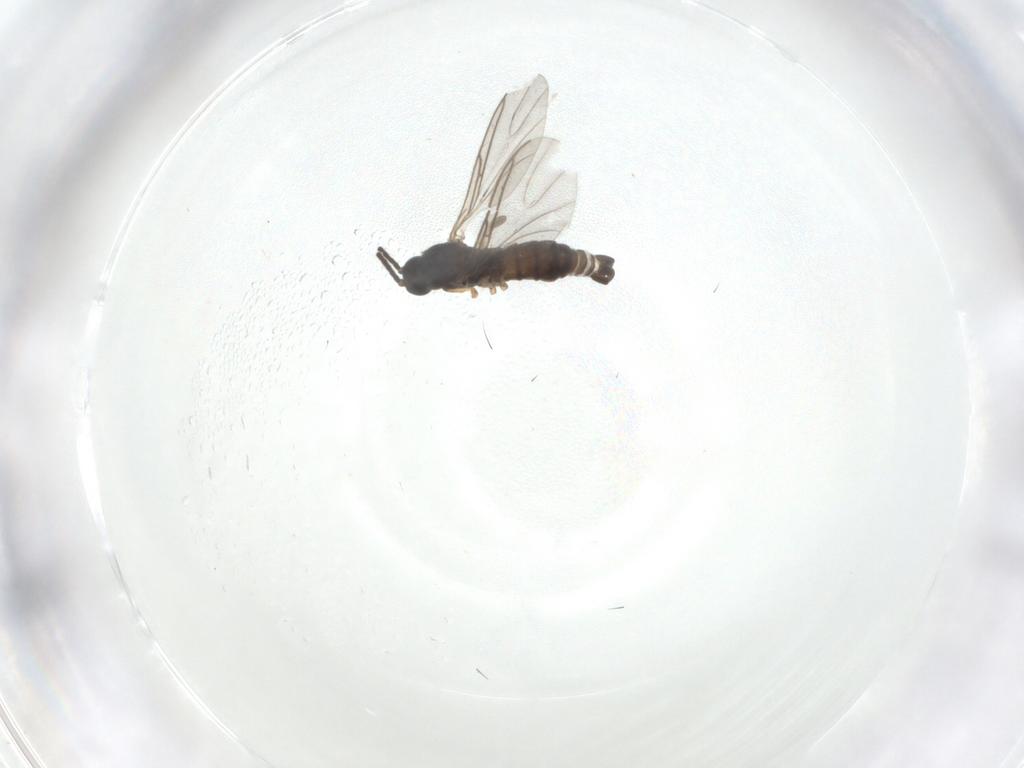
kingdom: Animalia
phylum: Arthropoda
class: Insecta
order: Diptera
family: Sciaridae
